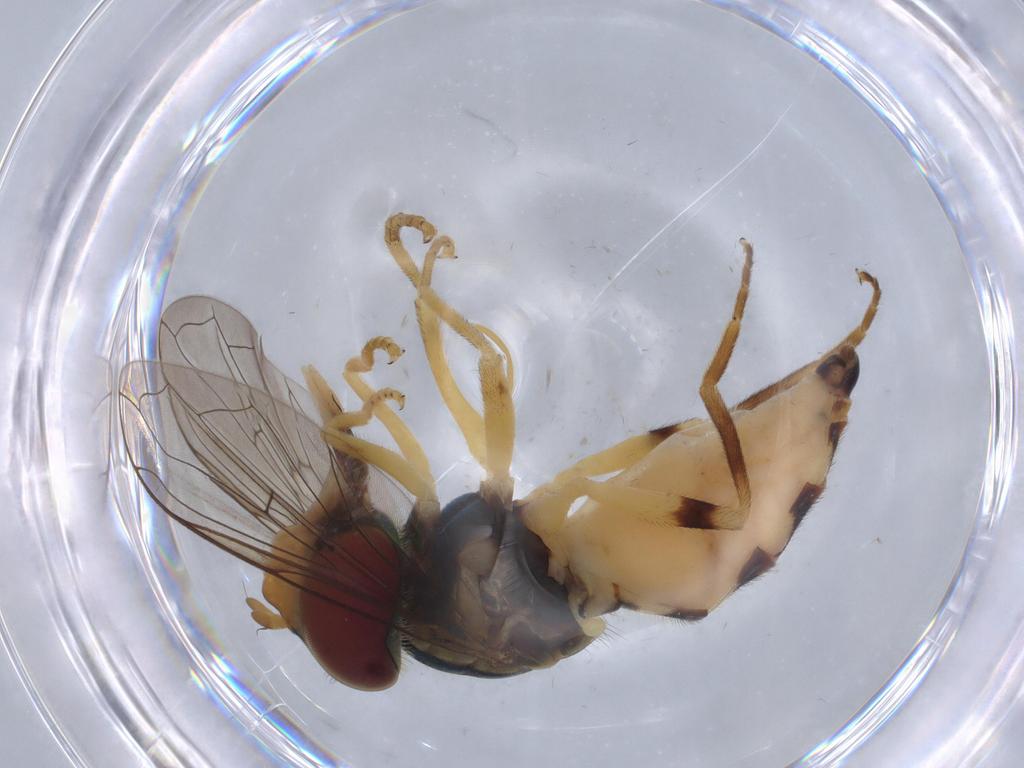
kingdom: Animalia
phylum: Arthropoda
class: Insecta
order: Diptera
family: Syrphidae
